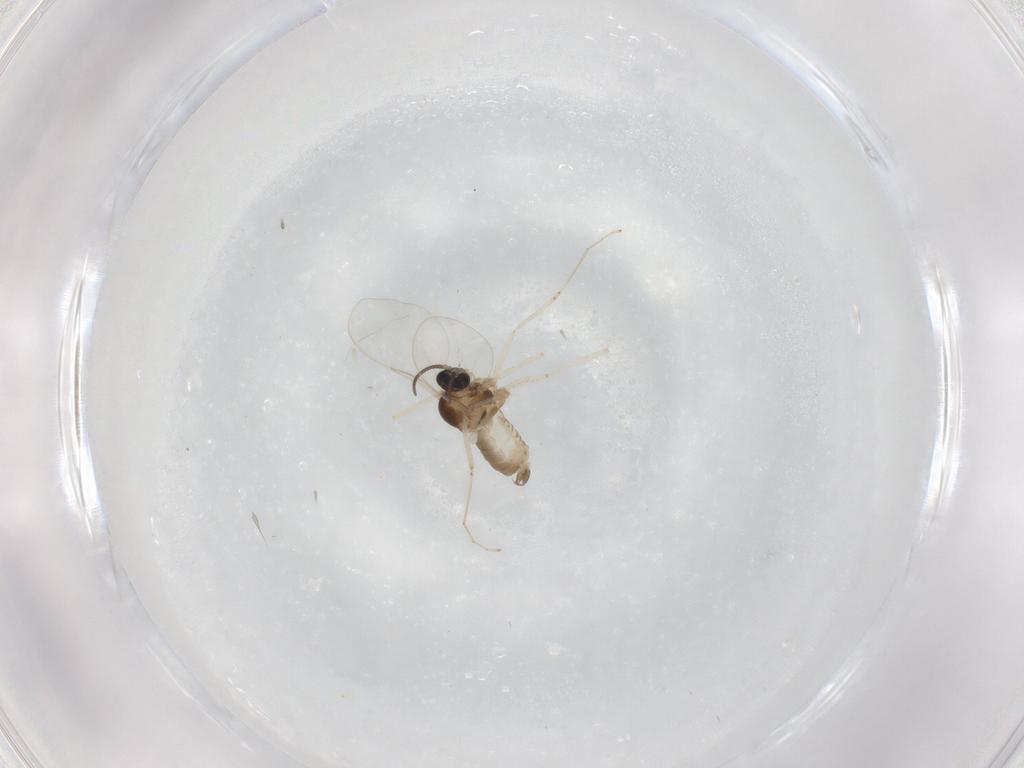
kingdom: Animalia
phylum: Arthropoda
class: Insecta
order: Diptera
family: Cecidomyiidae
